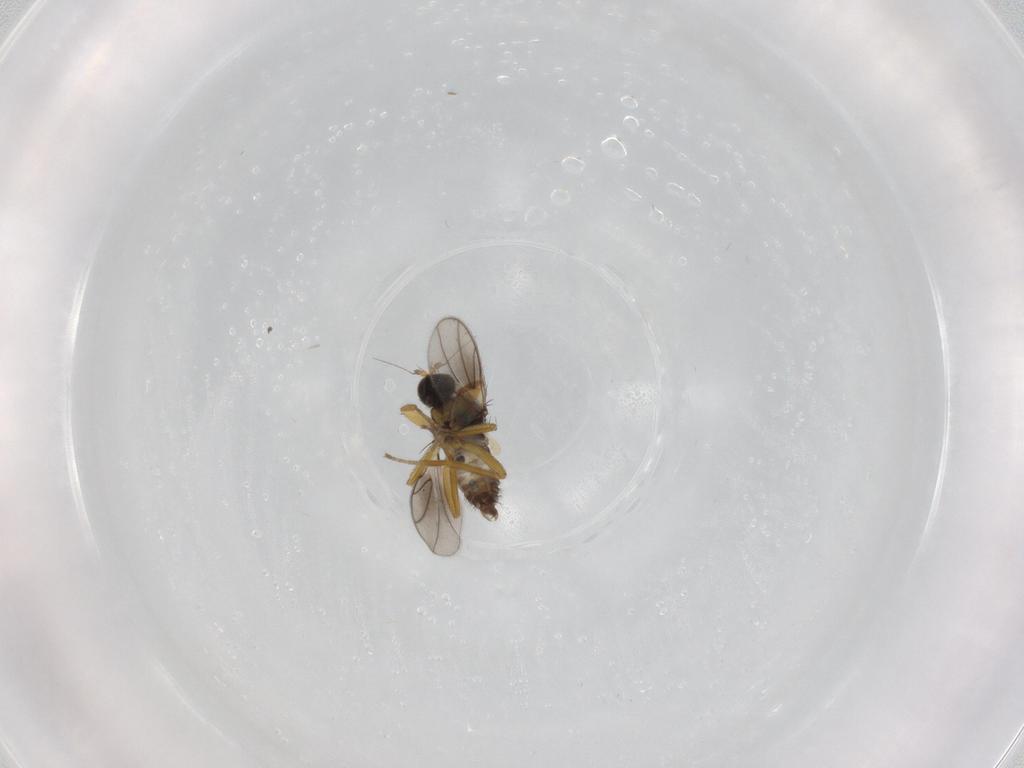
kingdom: Animalia
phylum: Arthropoda
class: Insecta
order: Diptera
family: Hybotidae
